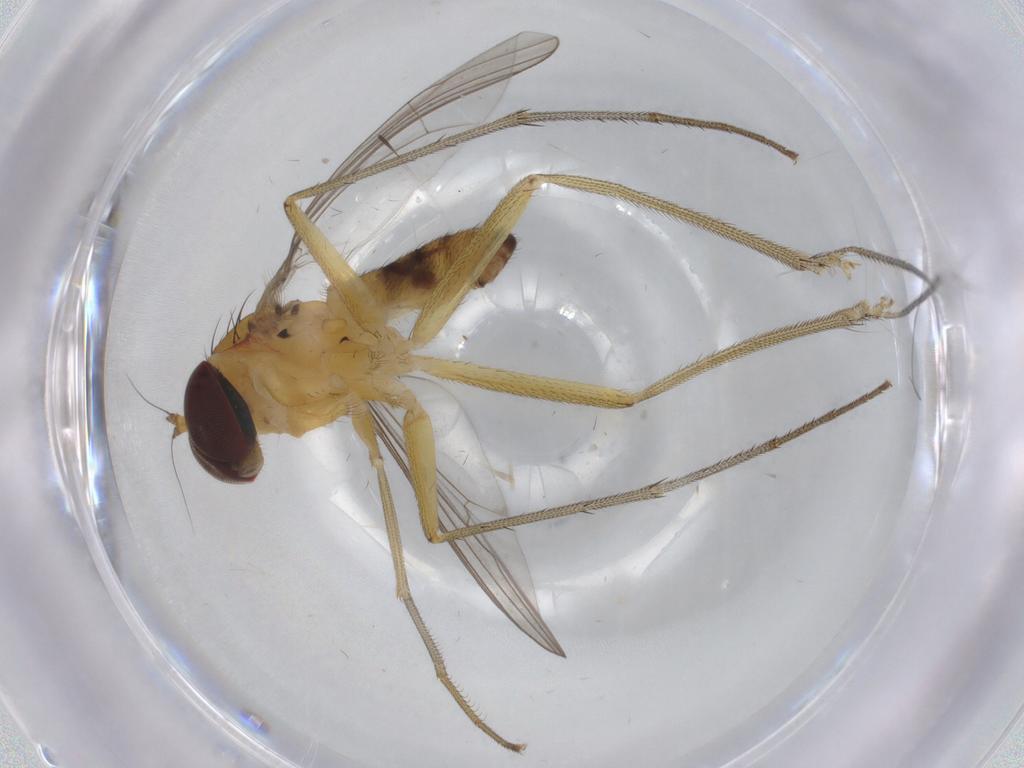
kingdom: Animalia
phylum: Arthropoda
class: Insecta
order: Diptera
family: Dolichopodidae
